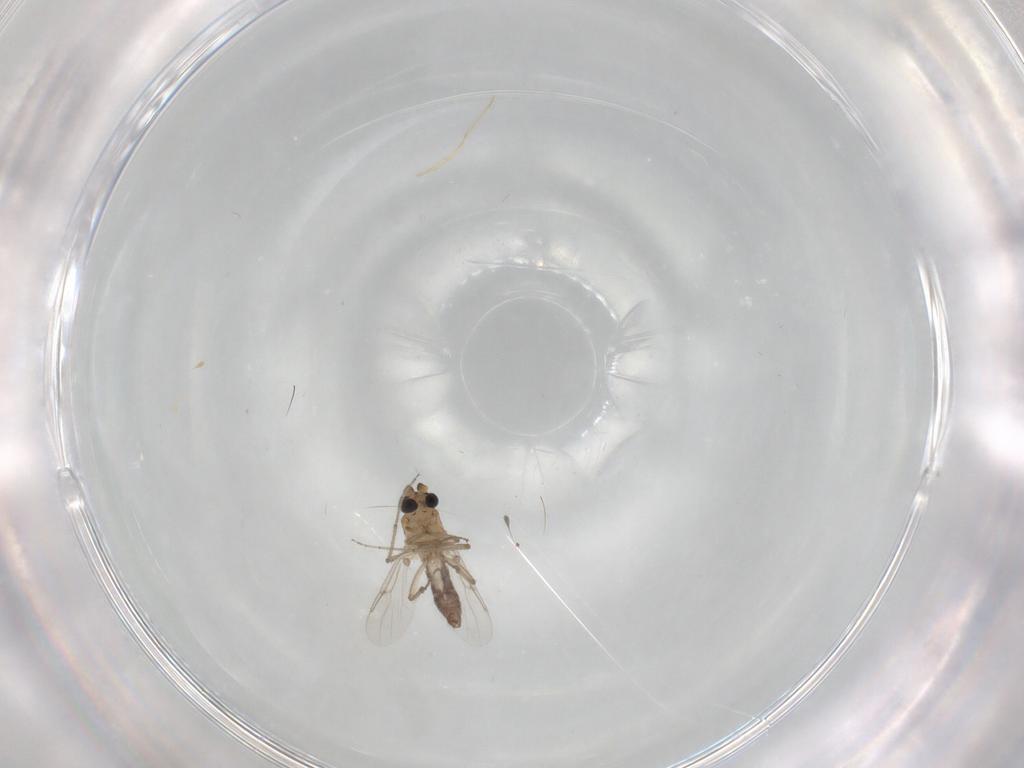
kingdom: Animalia
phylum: Arthropoda
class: Insecta
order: Diptera
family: Ceratopogonidae
